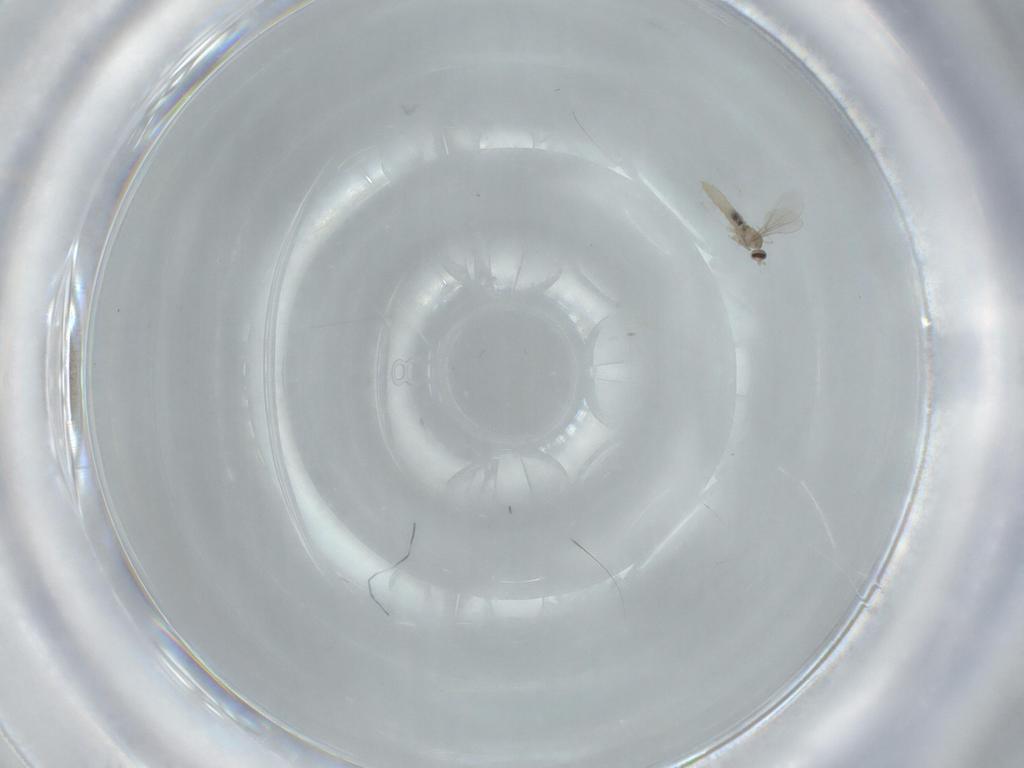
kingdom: Animalia
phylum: Arthropoda
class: Insecta
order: Diptera
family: Cecidomyiidae
